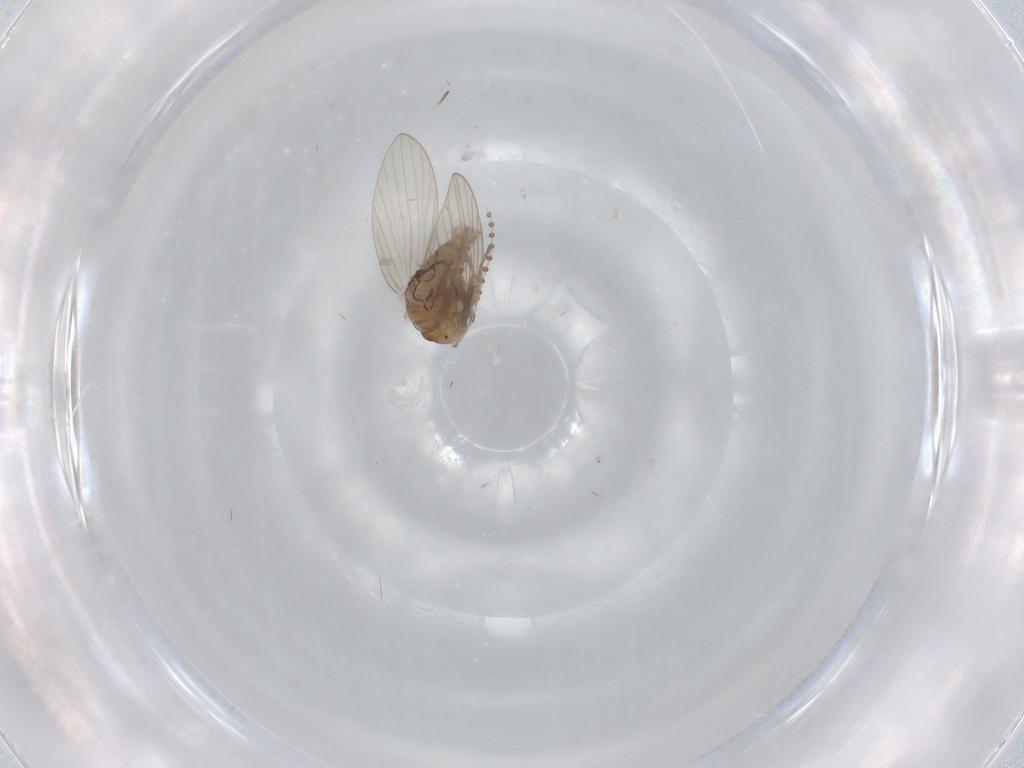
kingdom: Animalia
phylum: Arthropoda
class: Insecta
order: Diptera
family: Psychodidae
